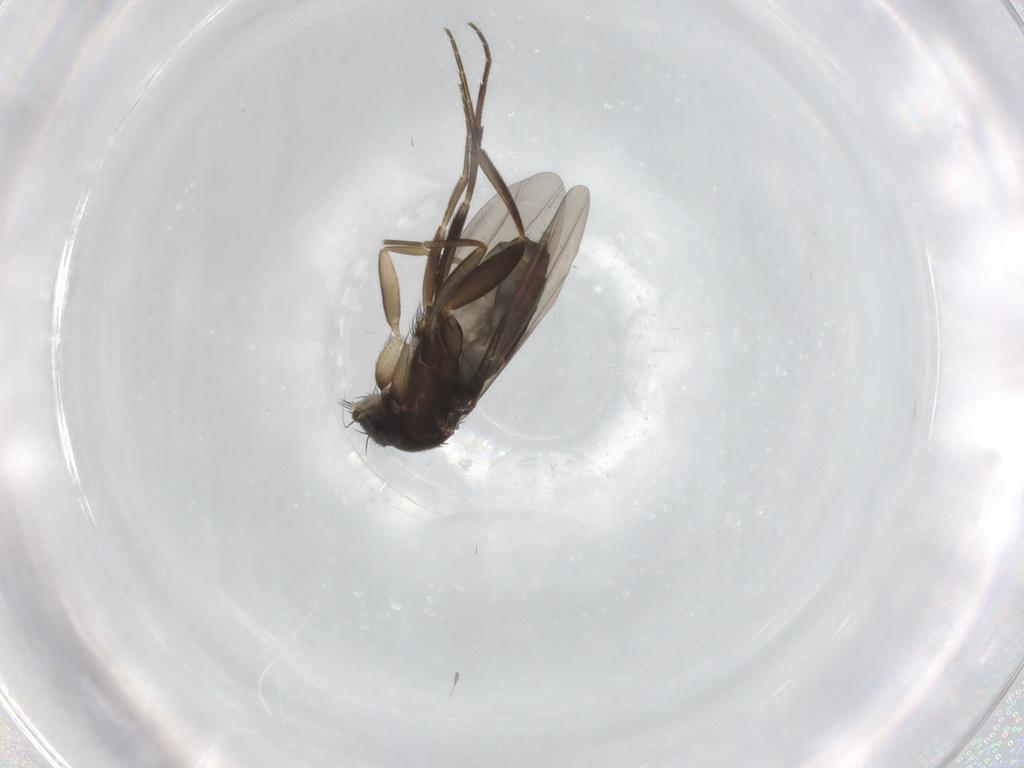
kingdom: Animalia
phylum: Arthropoda
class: Insecta
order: Diptera
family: Phoridae
